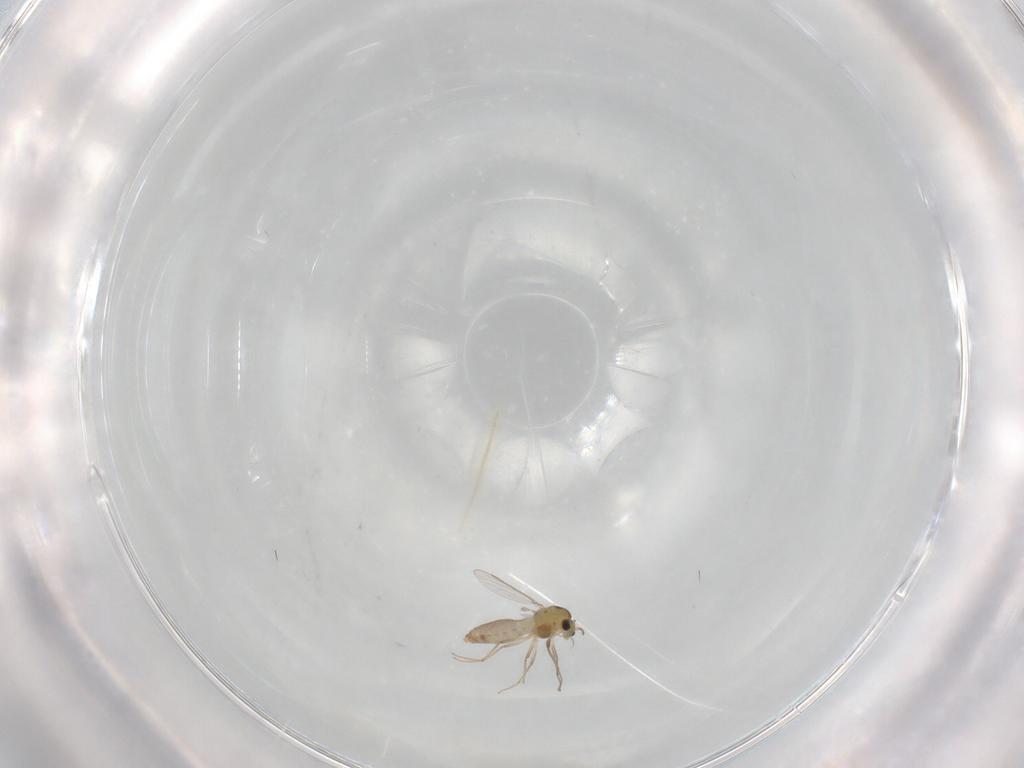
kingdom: Animalia
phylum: Arthropoda
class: Insecta
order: Diptera
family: Chironomidae
